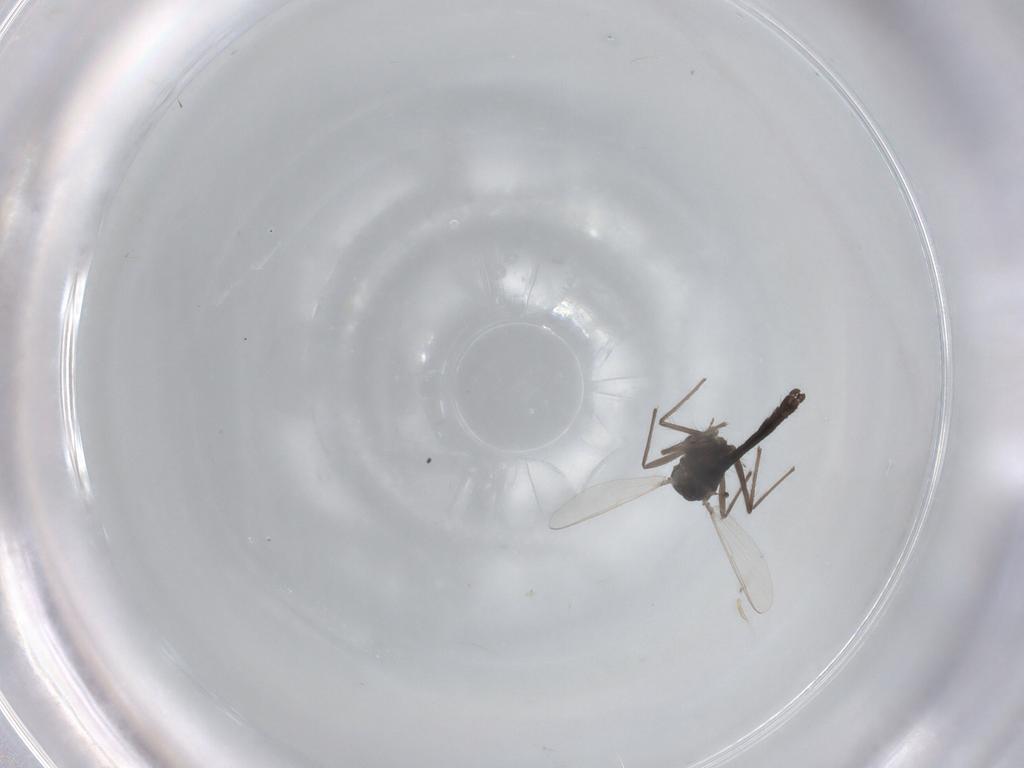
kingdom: Animalia
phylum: Arthropoda
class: Insecta
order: Diptera
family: Chironomidae
